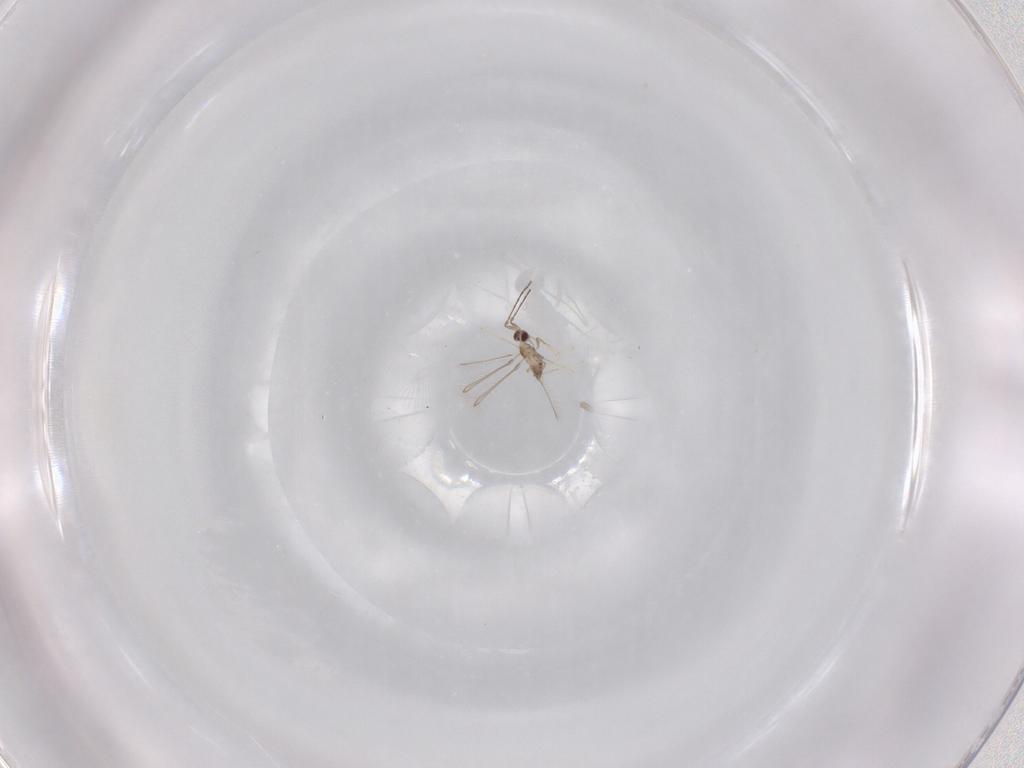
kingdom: Animalia
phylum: Arthropoda
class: Insecta
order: Hymenoptera
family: Mymaridae
